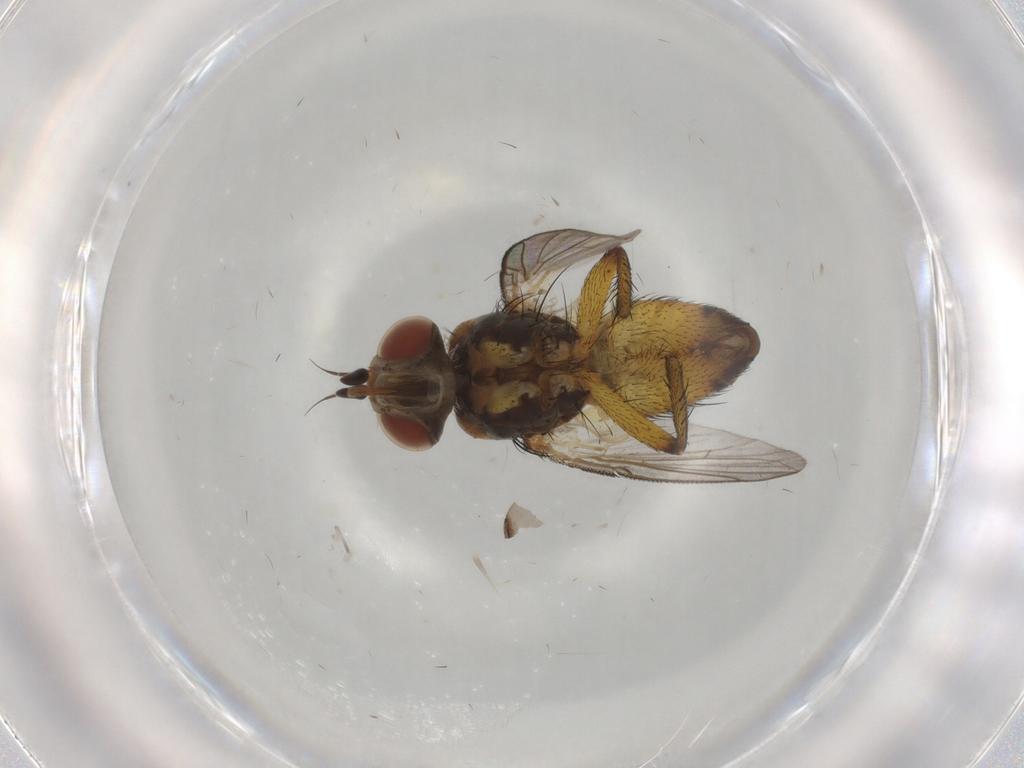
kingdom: Animalia
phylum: Arthropoda
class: Insecta
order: Diptera
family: Tachinidae
